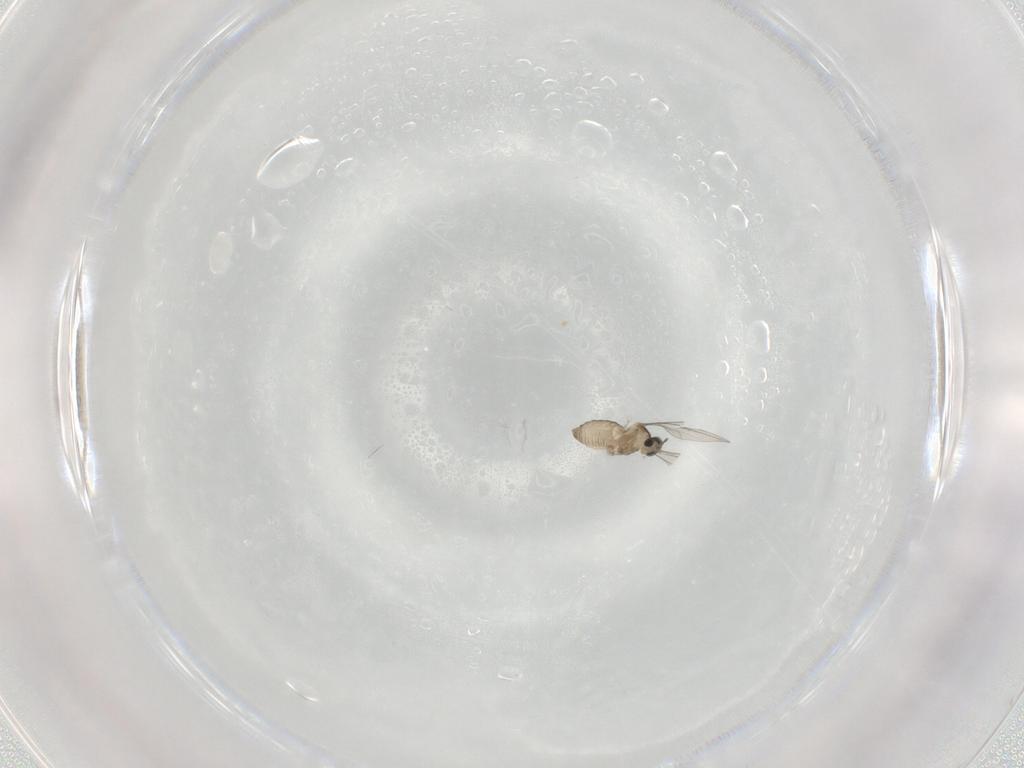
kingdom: Animalia
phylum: Arthropoda
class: Insecta
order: Diptera
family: Cecidomyiidae
